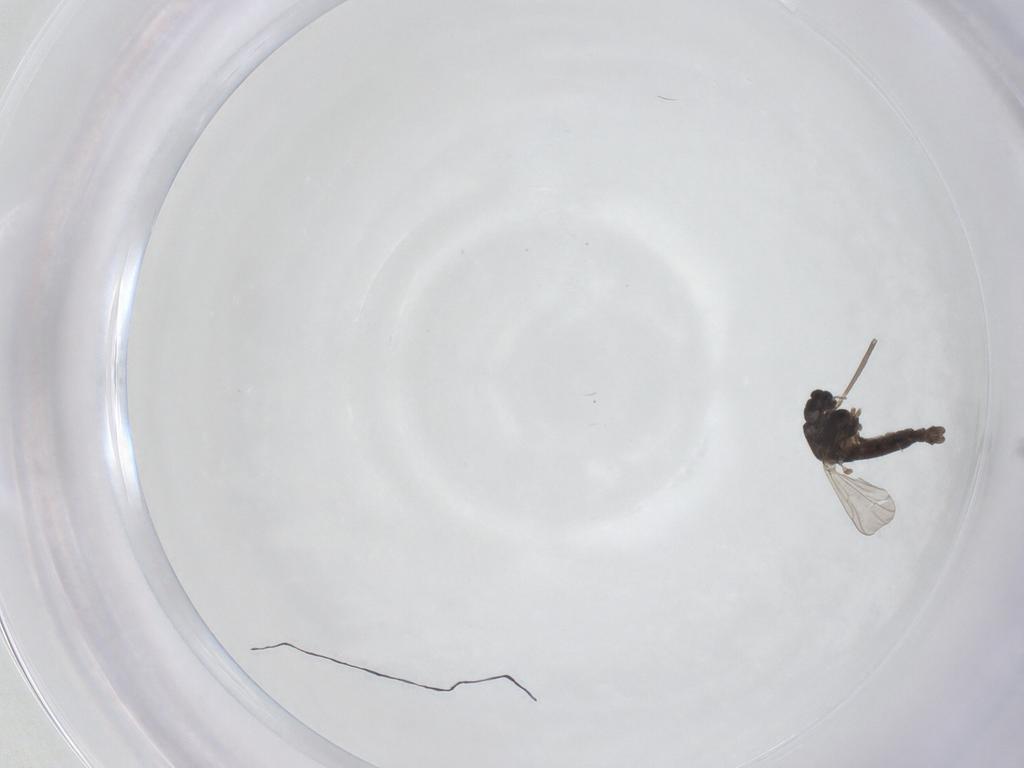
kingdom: Animalia
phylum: Arthropoda
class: Insecta
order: Diptera
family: Chironomidae
